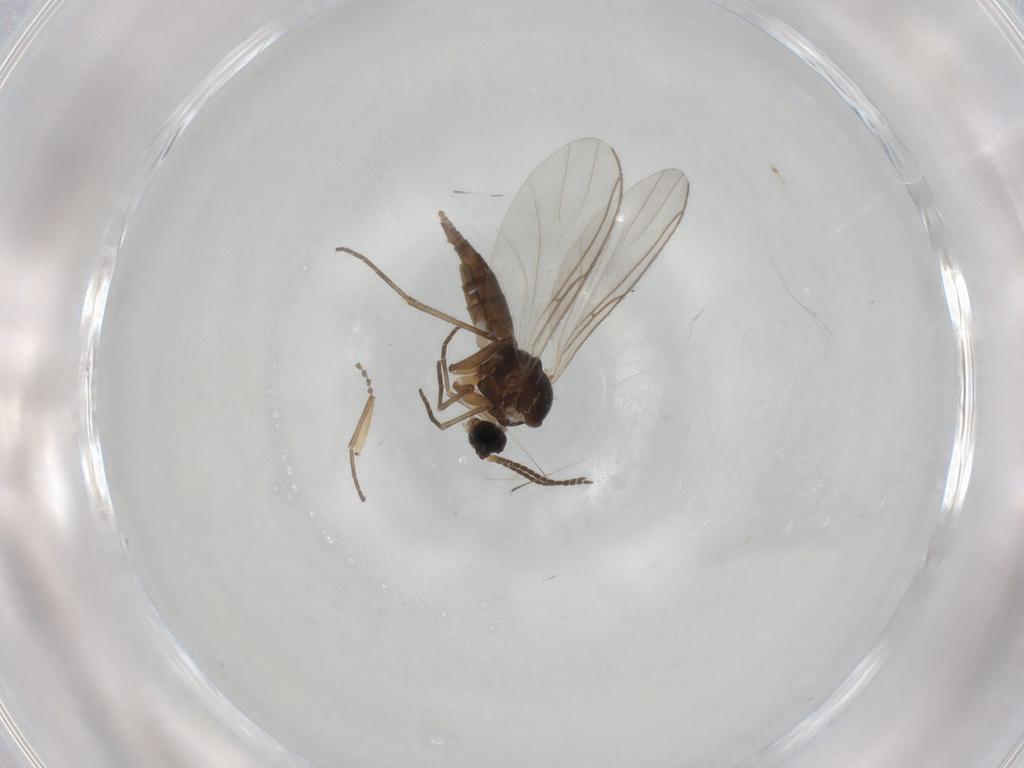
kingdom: Animalia
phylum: Arthropoda
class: Insecta
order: Diptera
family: Sciaridae
